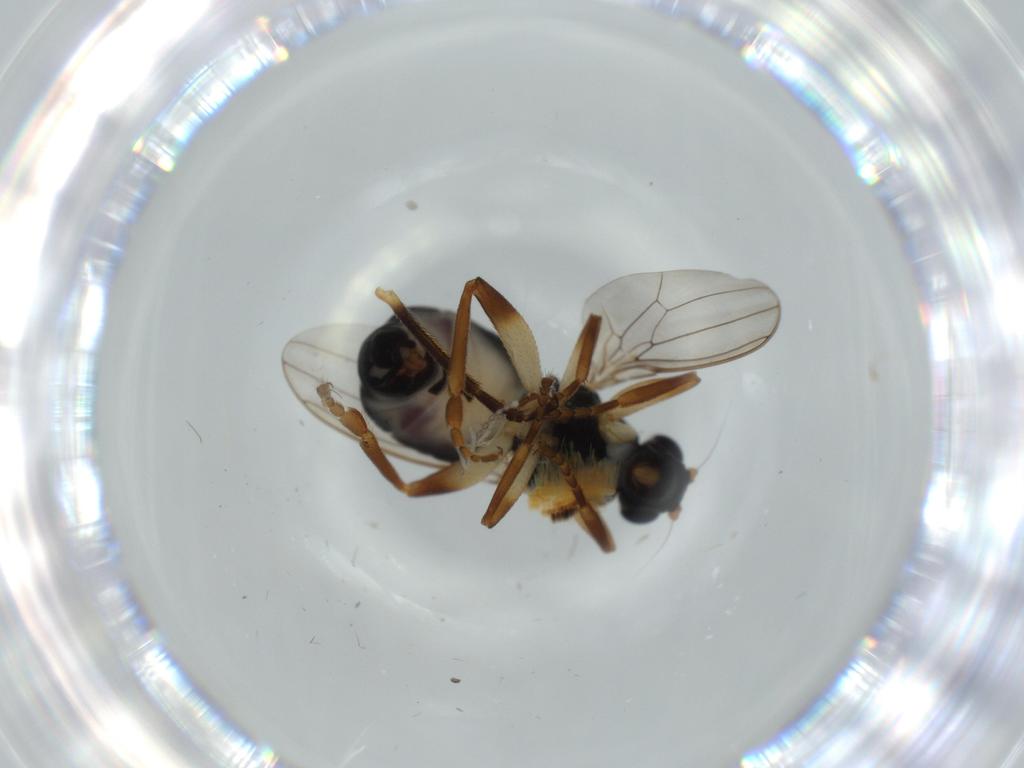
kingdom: Animalia
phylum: Arthropoda
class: Insecta
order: Diptera
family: Sphaeroceridae
